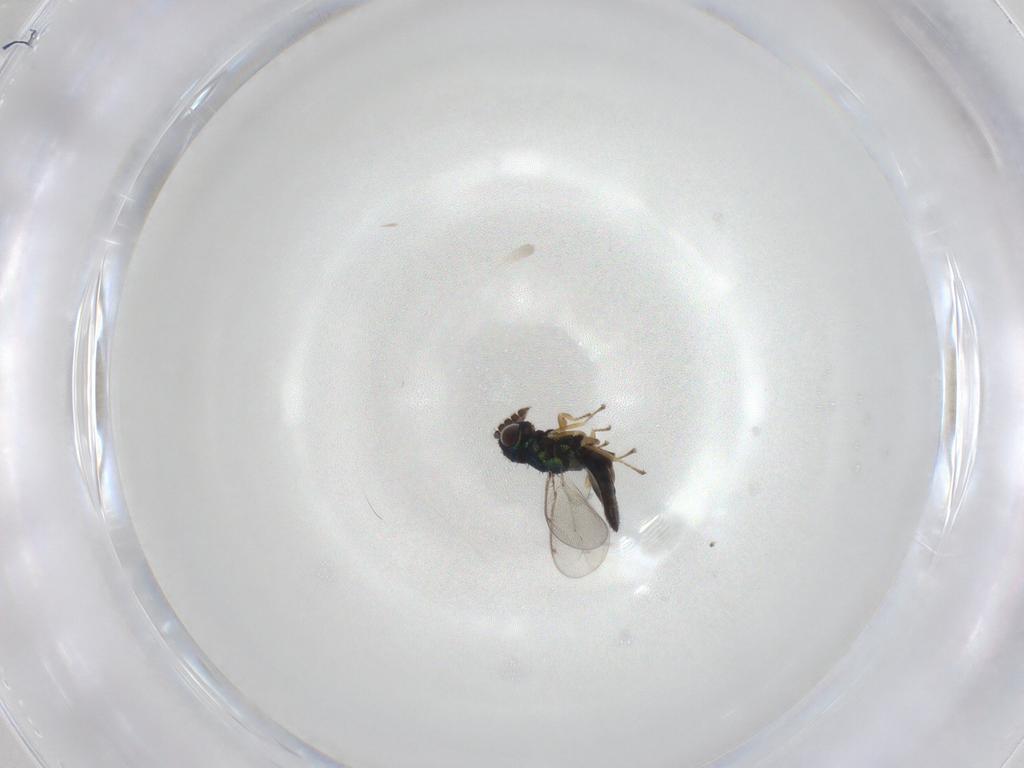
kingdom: Animalia
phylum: Arthropoda
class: Insecta
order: Hymenoptera
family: Eulophidae
